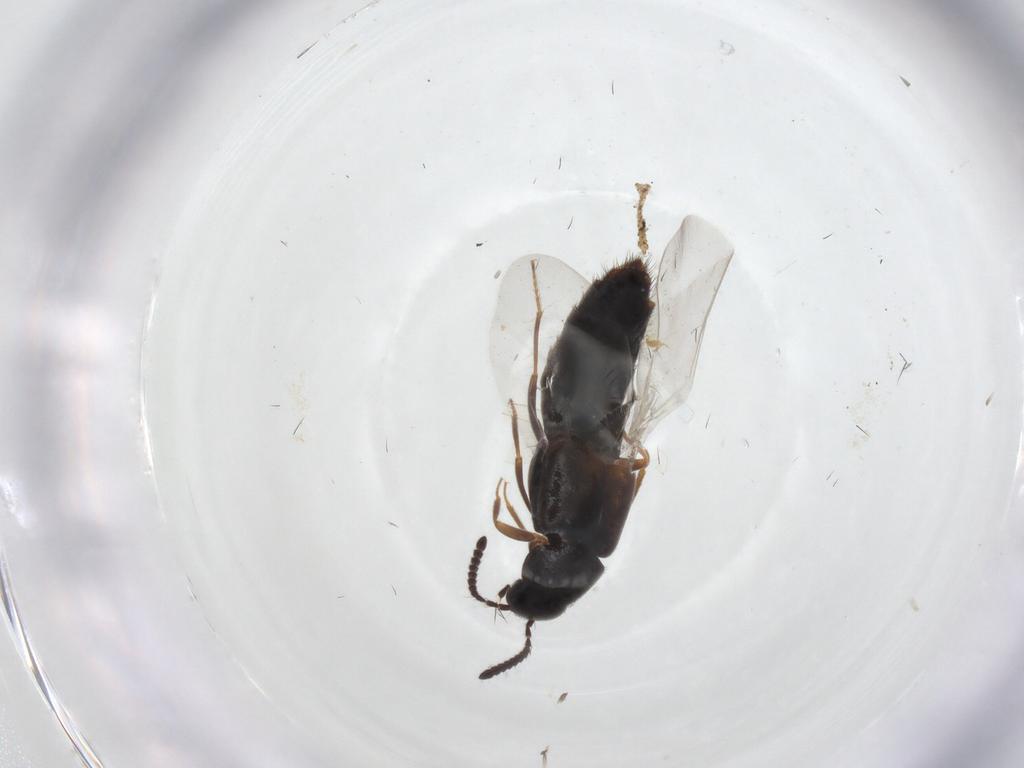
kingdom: Animalia
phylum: Arthropoda
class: Insecta
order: Coleoptera
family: Staphylinidae
